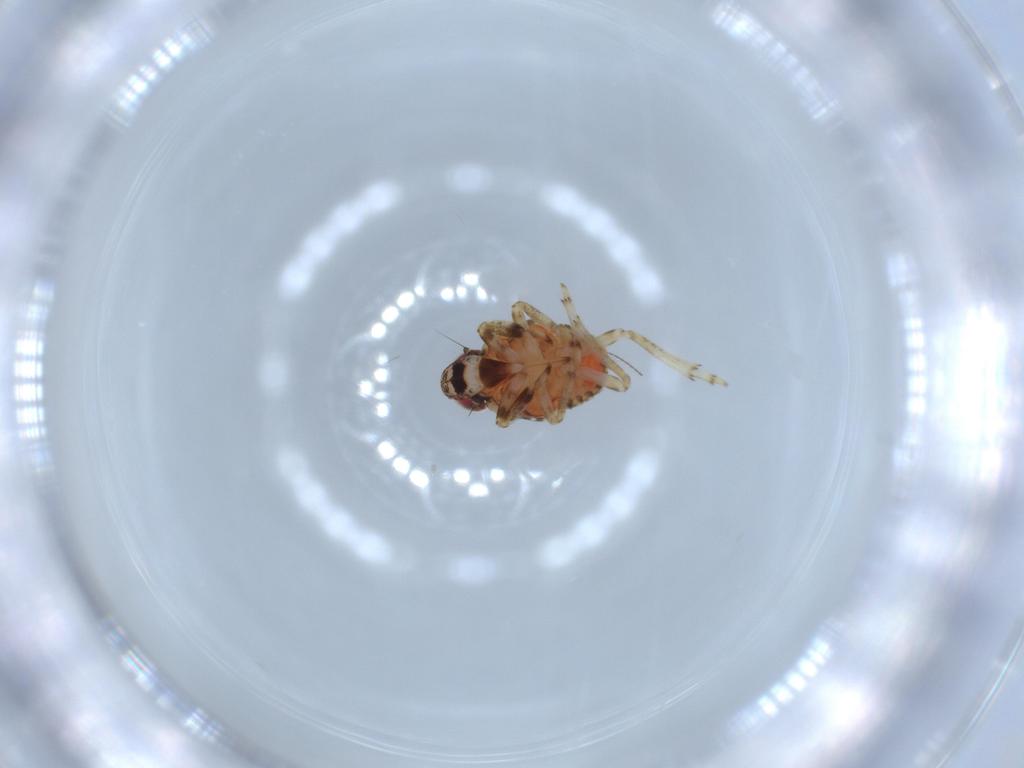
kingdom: Animalia
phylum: Arthropoda
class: Insecta
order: Hemiptera
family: Issidae
